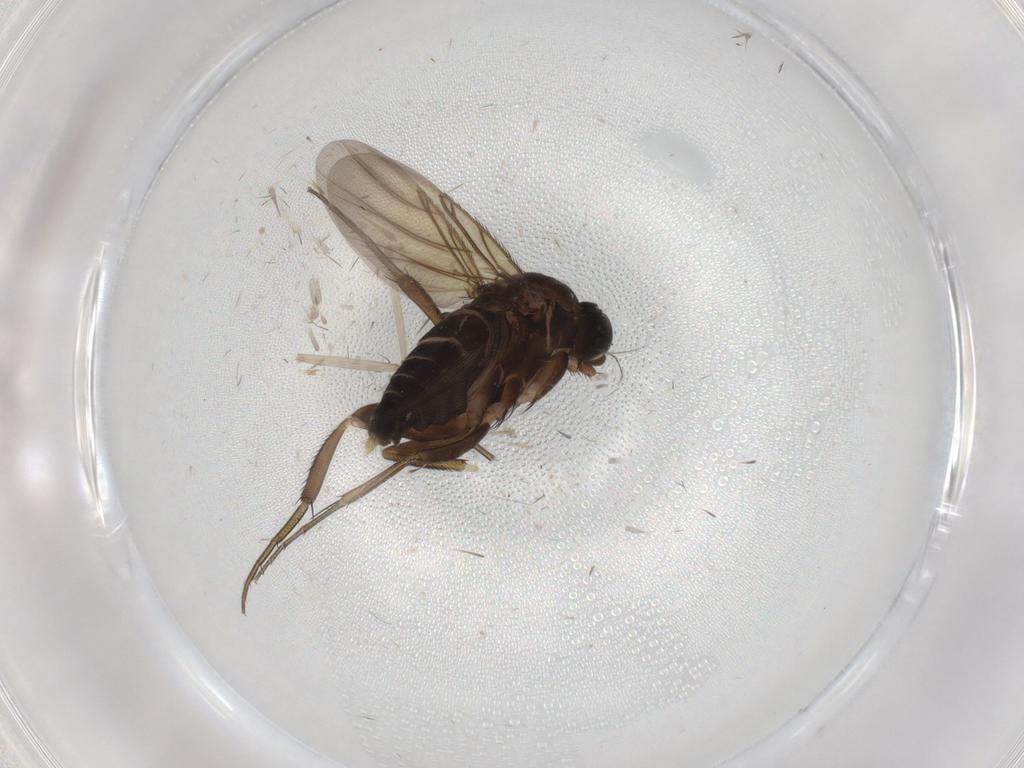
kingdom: Animalia
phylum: Arthropoda
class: Insecta
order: Diptera
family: Phoridae
